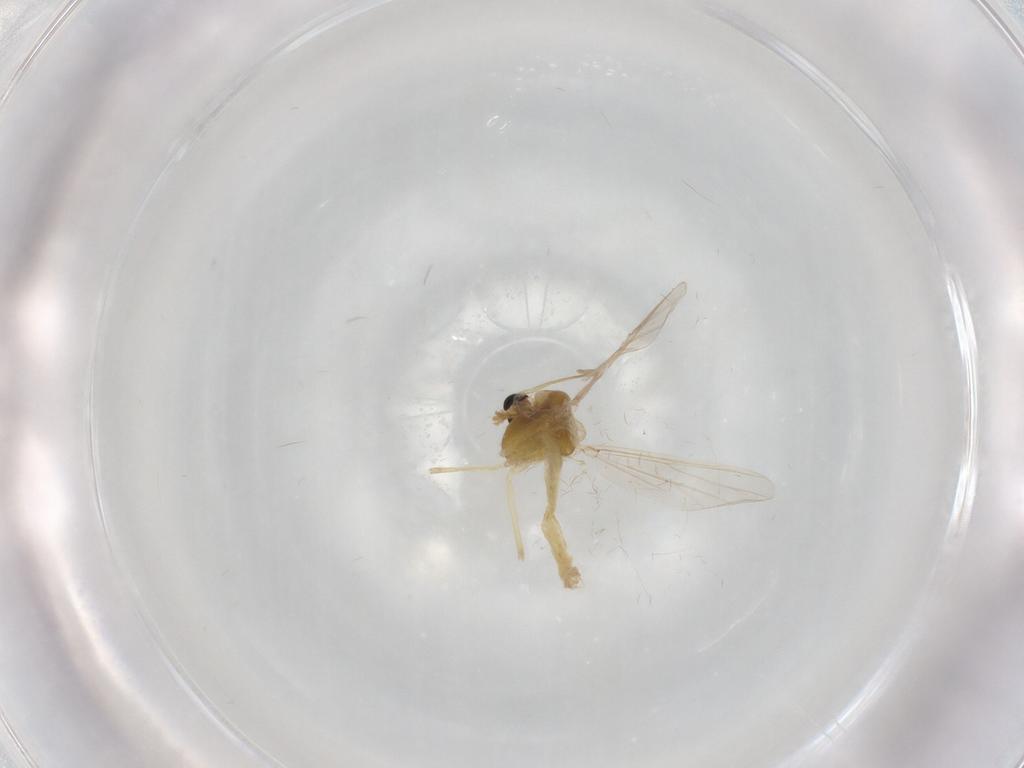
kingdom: Animalia
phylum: Arthropoda
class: Insecta
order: Diptera
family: Chironomidae
